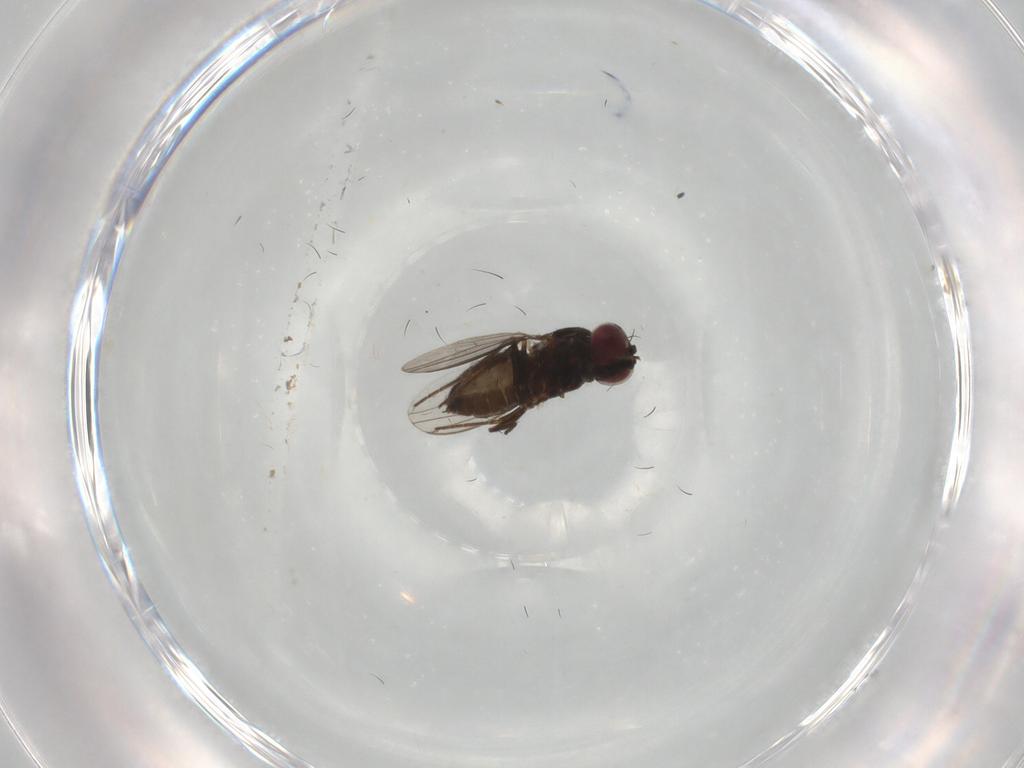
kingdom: Animalia
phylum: Arthropoda
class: Insecta
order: Diptera
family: Dolichopodidae
